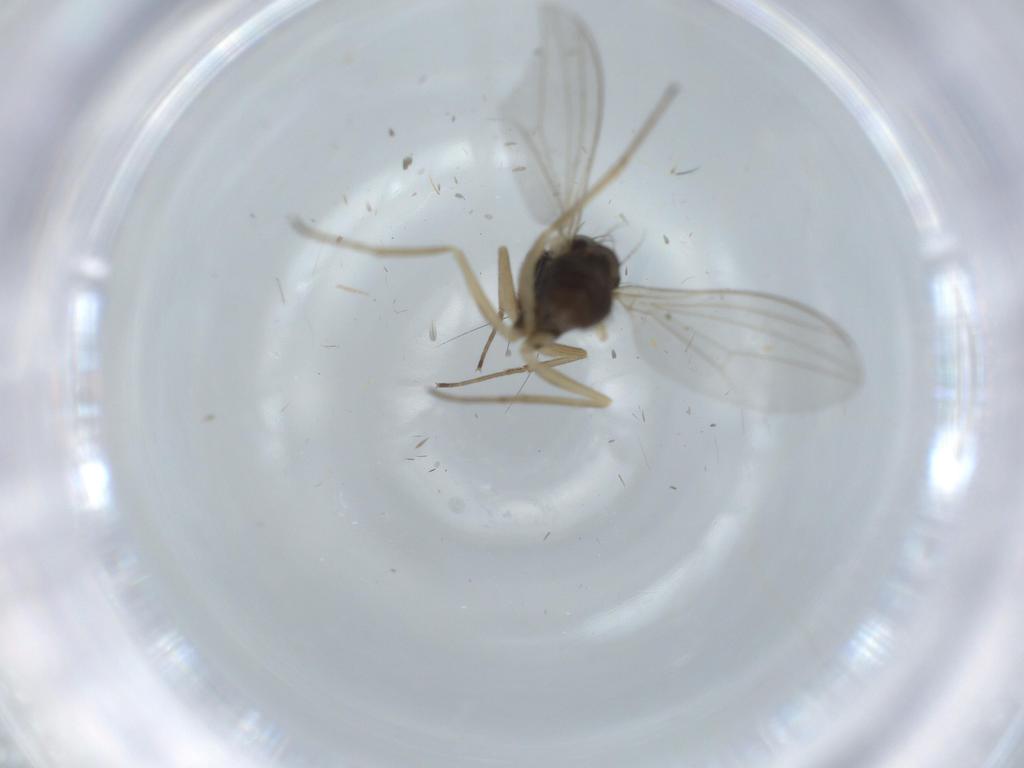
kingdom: Animalia
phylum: Arthropoda
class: Insecta
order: Diptera
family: Dolichopodidae
